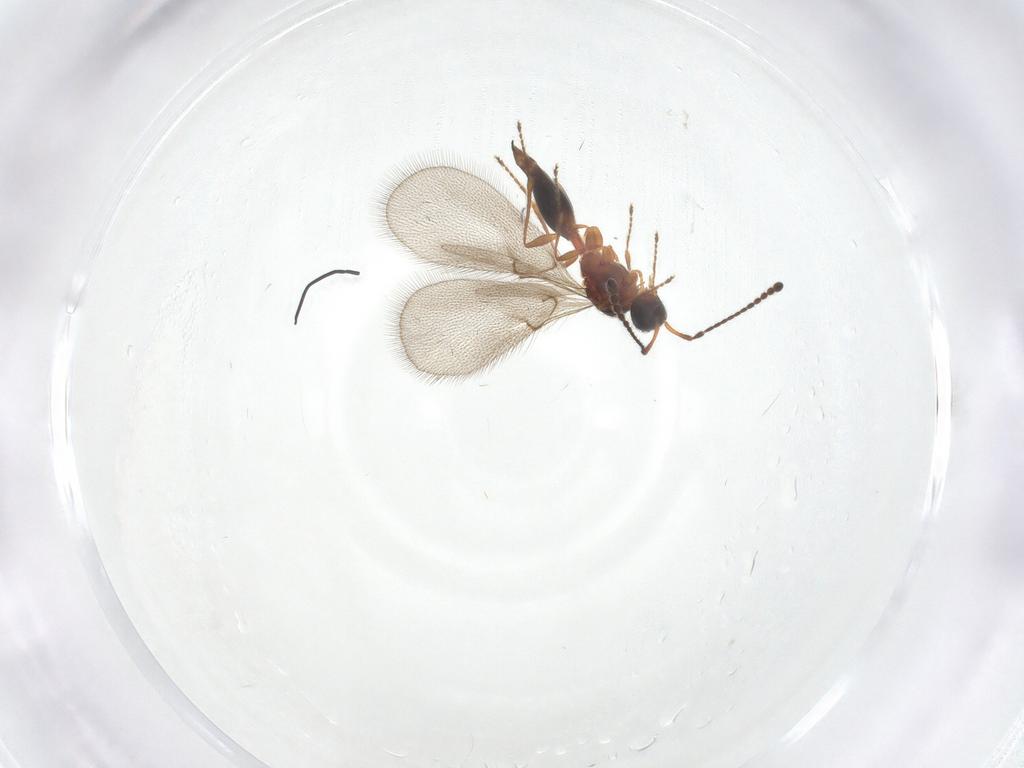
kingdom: Animalia
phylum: Arthropoda
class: Insecta
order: Hymenoptera
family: Diapriidae
